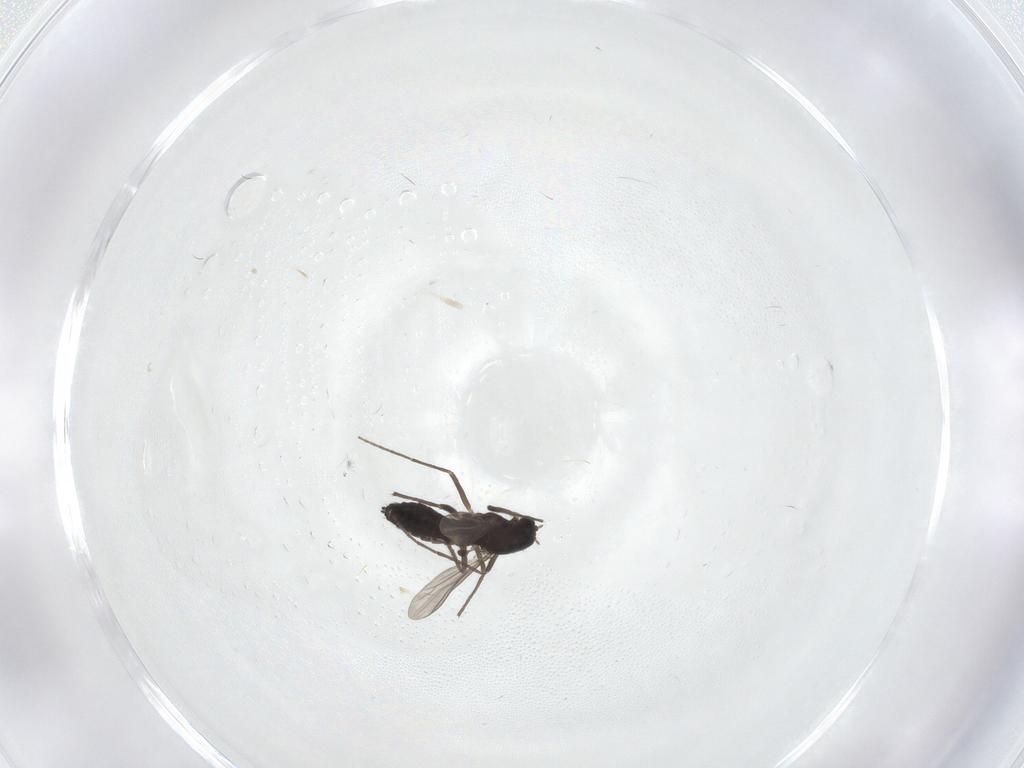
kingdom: Animalia
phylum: Arthropoda
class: Insecta
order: Diptera
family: Chironomidae
